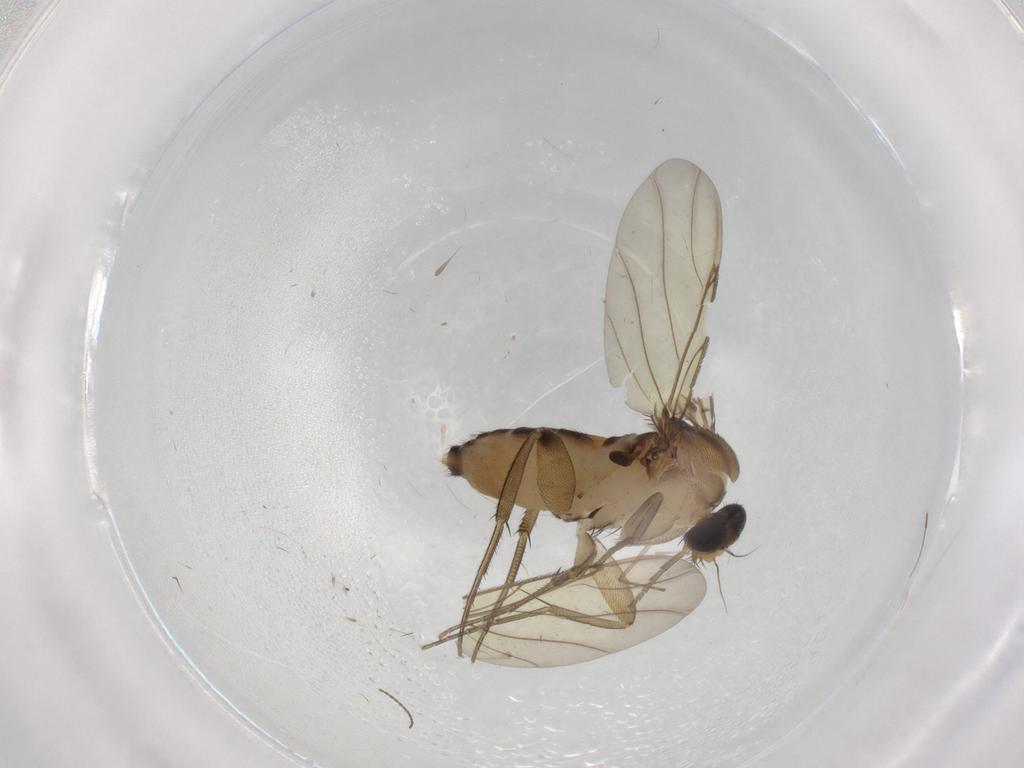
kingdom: Animalia
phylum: Arthropoda
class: Insecta
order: Diptera
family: Phoridae
